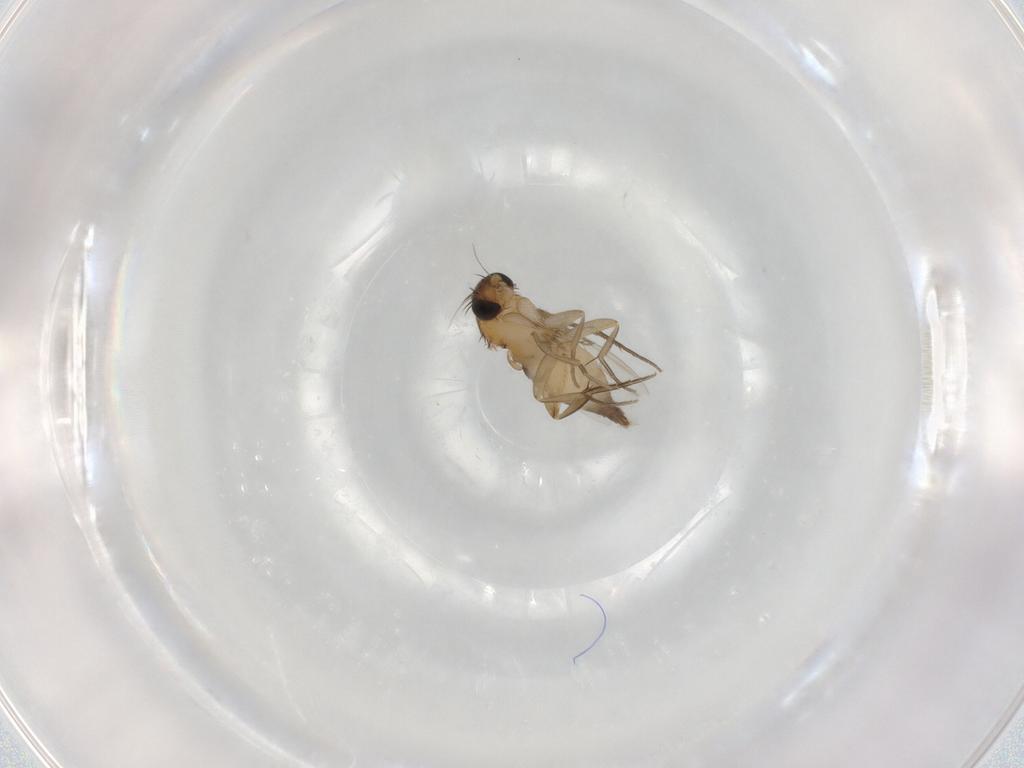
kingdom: Animalia
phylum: Arthropoda
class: Insecta
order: Diptera
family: Phoridae
